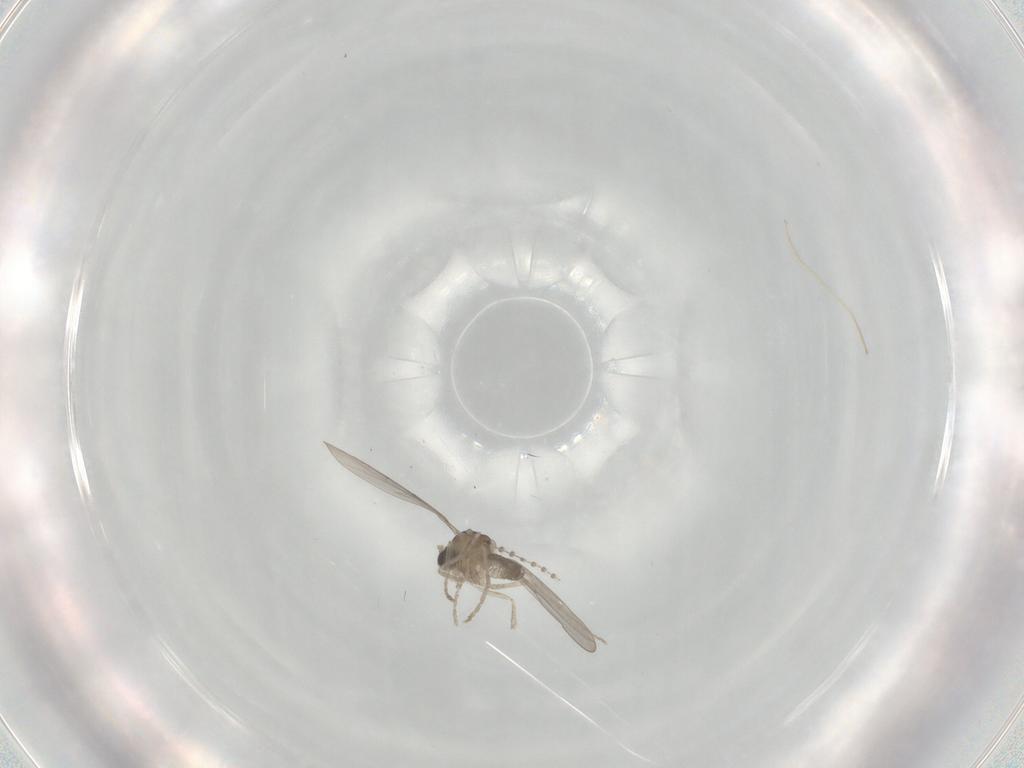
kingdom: Animalia
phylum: Arthropoda
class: Insecta
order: Diptera
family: Cecidomyiidae
